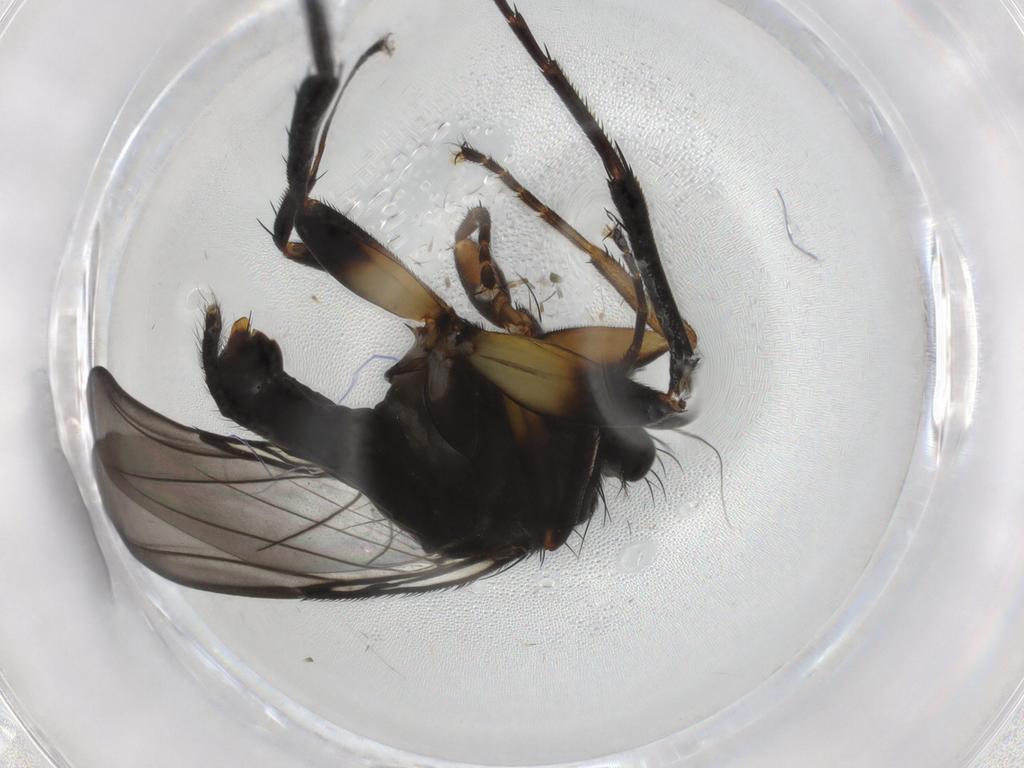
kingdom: Animalia
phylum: Arthropoda
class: Insecta
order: Diptera
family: Phoridae
